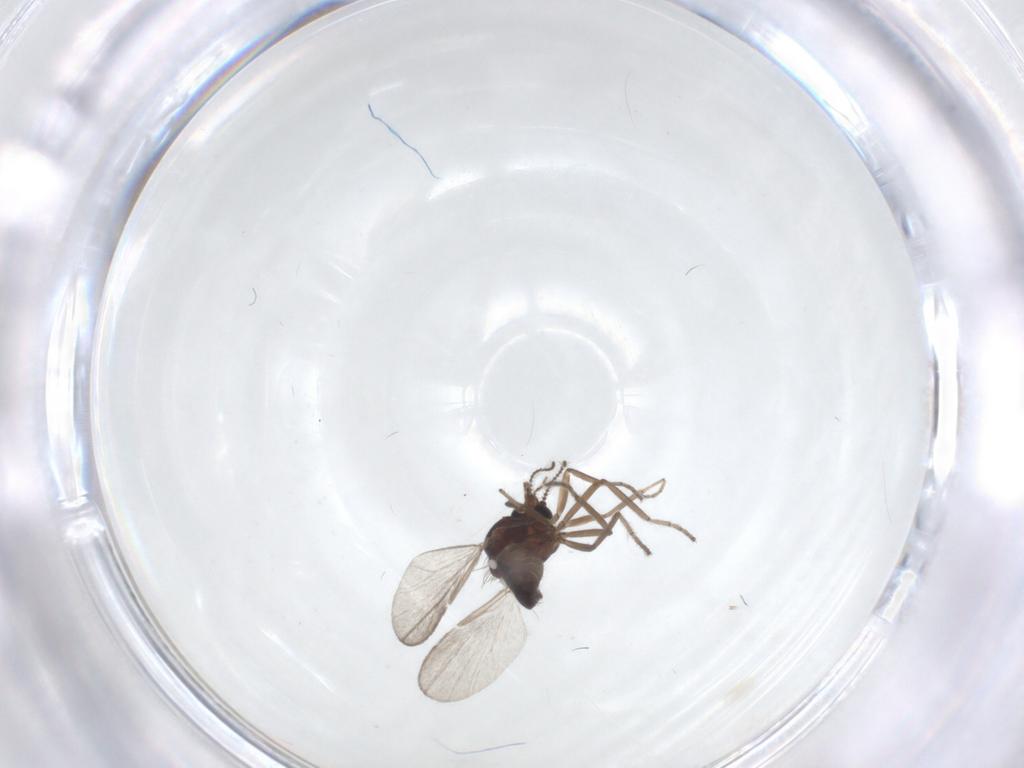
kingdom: Animalia
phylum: Arthropoda
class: Insecta
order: Diptera
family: Ceratopogonidae
